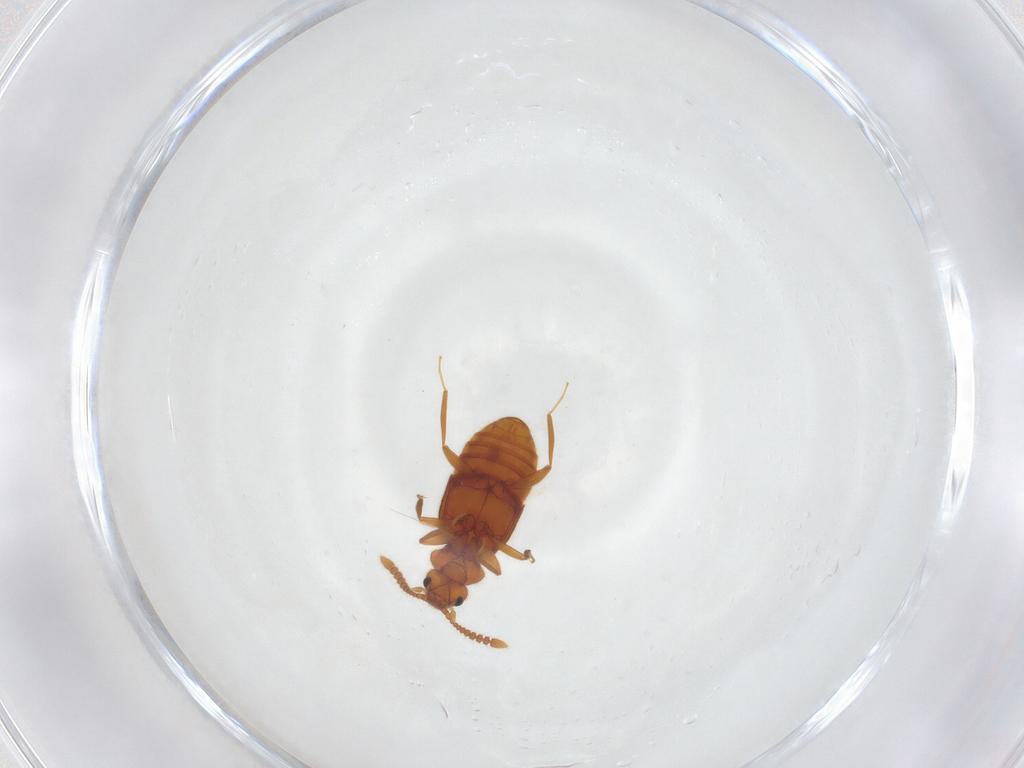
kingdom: Animalia
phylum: Arthropoda
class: Insecta
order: Coleoptera
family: Staphylinidae
